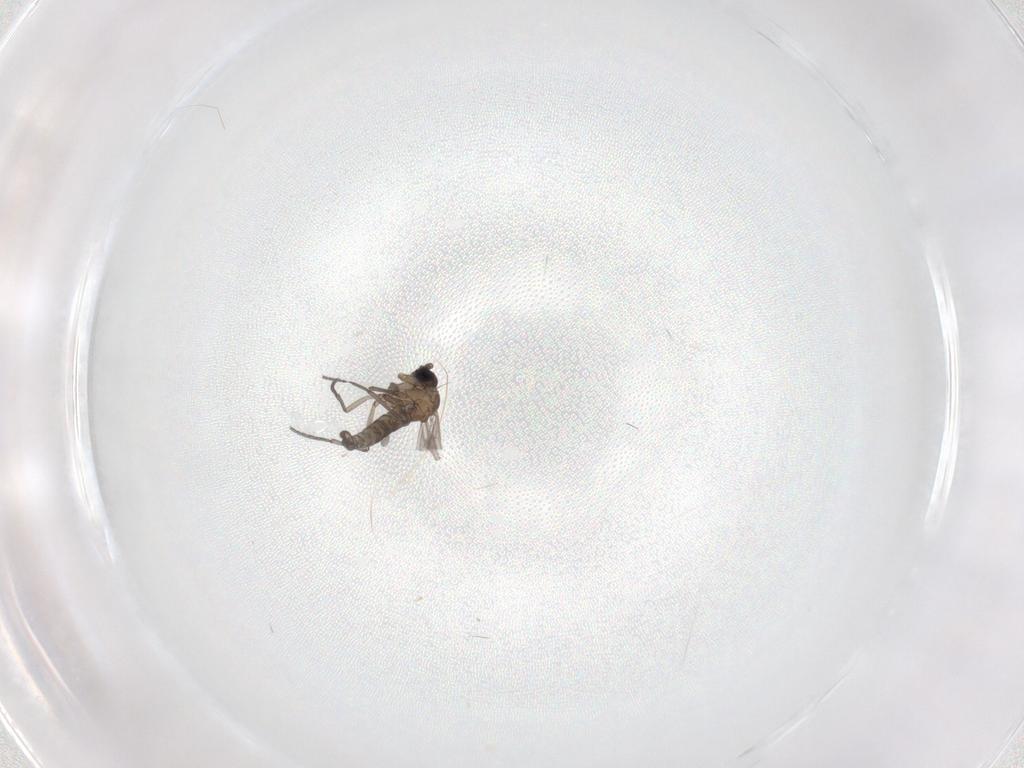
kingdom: Animalia
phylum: Arthropoda
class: Insecta
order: Diptera
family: Sciaridae
